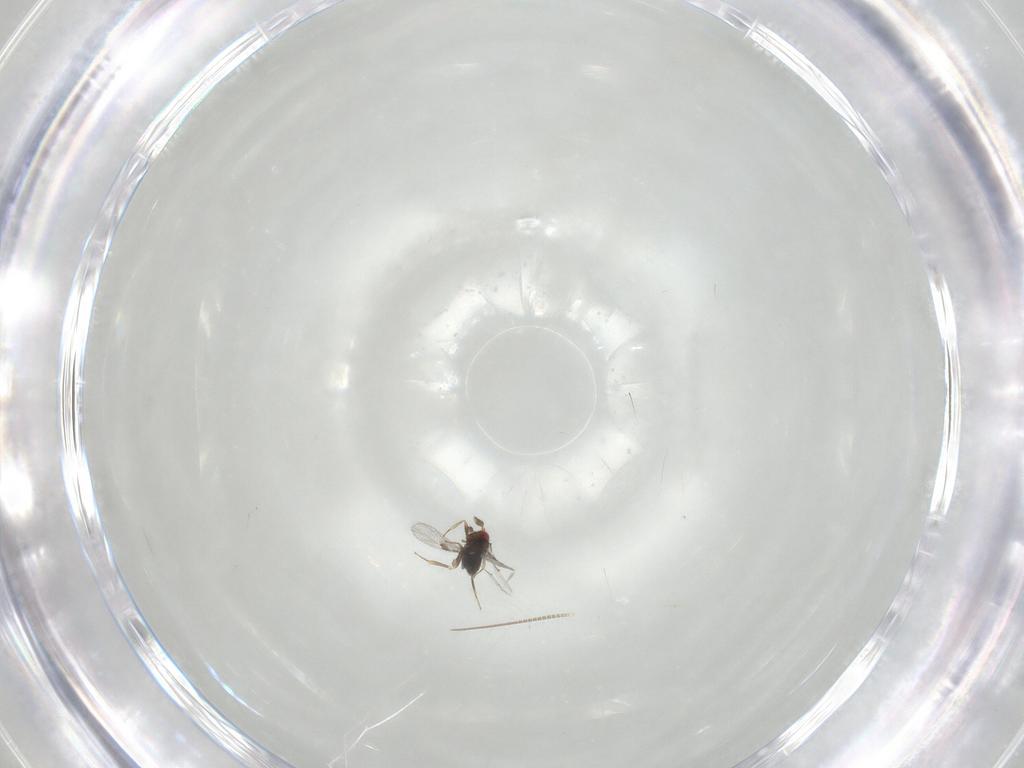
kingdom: Animalia
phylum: Arthropoda
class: Insecta
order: Hymenoptera
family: Trichogrammatidae
